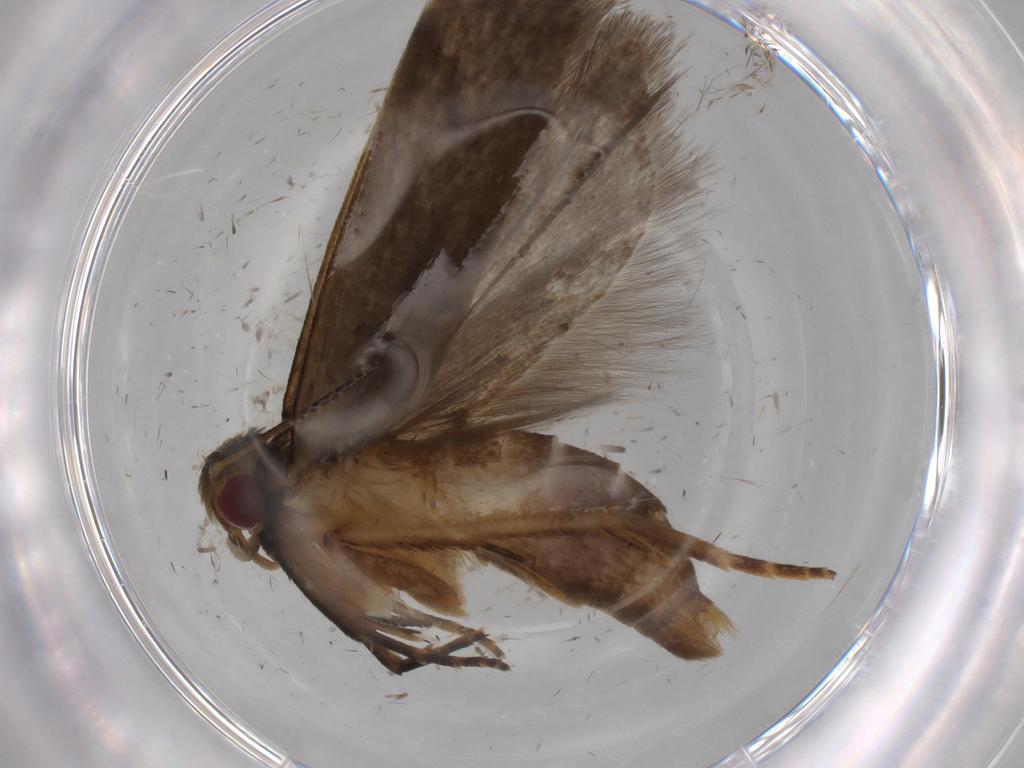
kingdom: Animalia
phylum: Arthropoda
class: Insecta
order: Lepidoptera
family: Gelechiidae
